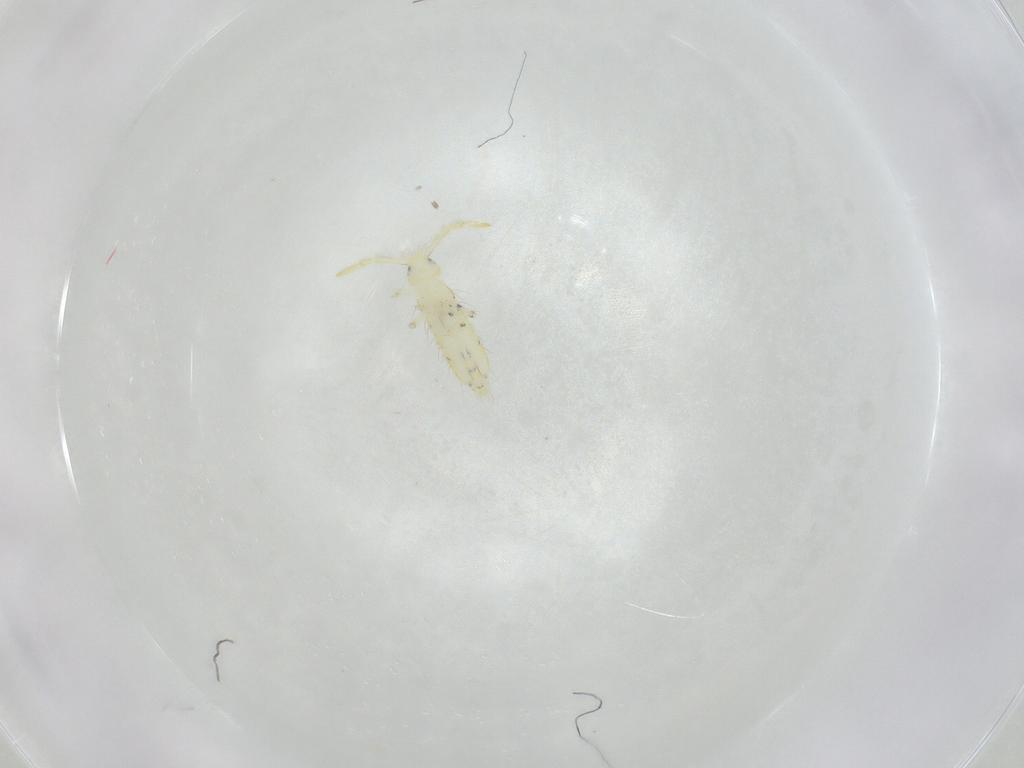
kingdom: Animalia
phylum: Arthropoda
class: Insecta
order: Hymenoptera
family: Signiphoridae
